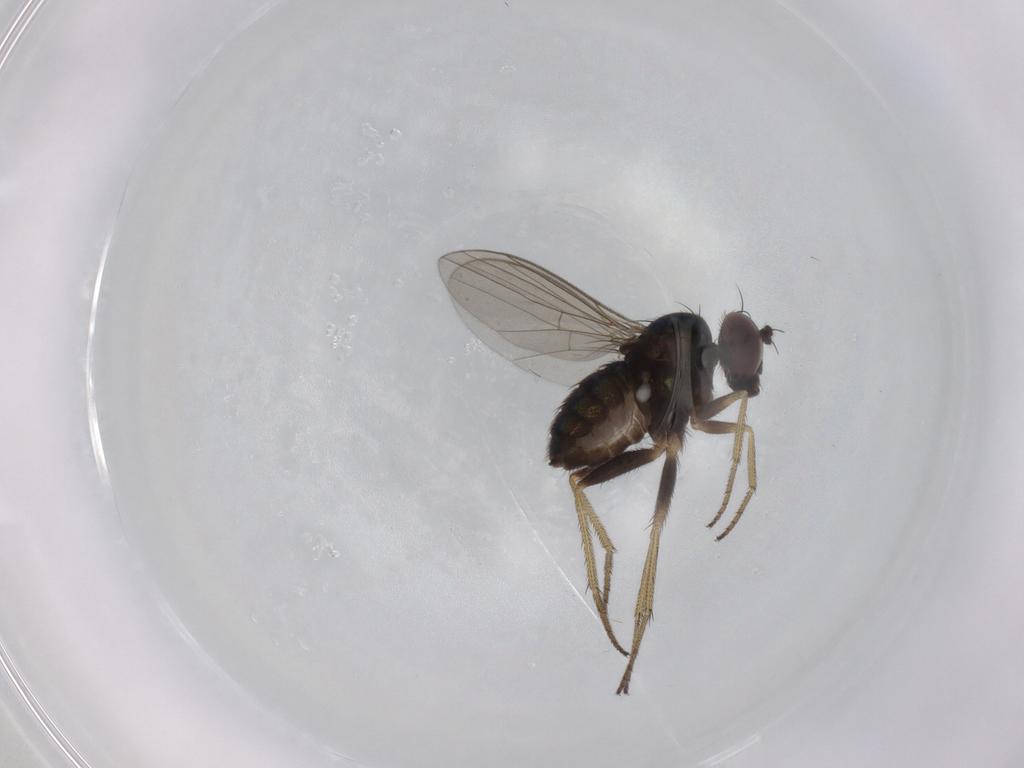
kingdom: Animalia
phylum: Arthropoda
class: Insecta
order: Diptera
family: Dolichopodidae
